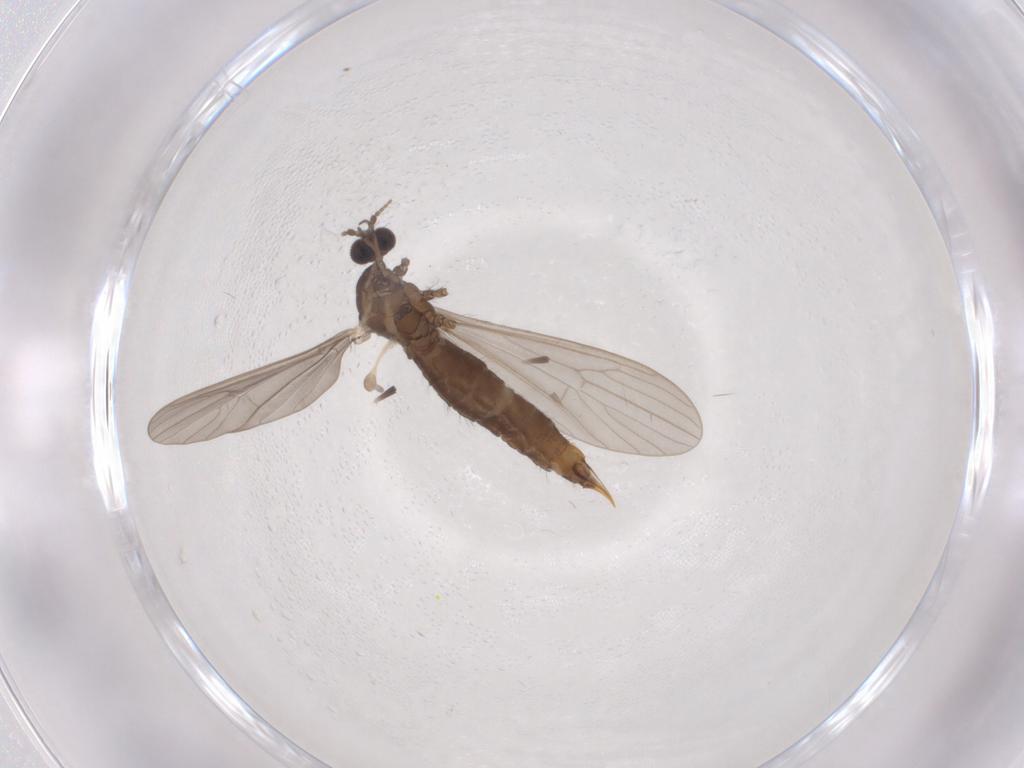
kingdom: Animalia
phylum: Arthropoda
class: Insecta
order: Diptera
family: Limoniidae
